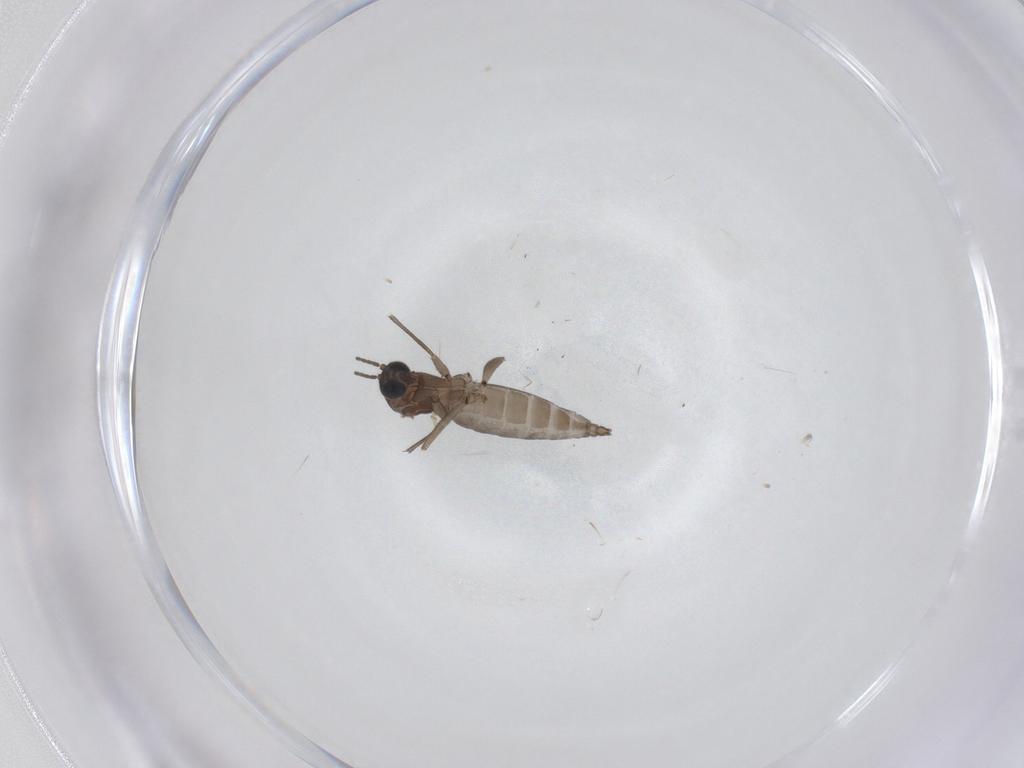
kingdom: Animalia
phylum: Arthropoda
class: Insecta
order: Diptera
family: Sciaridae
